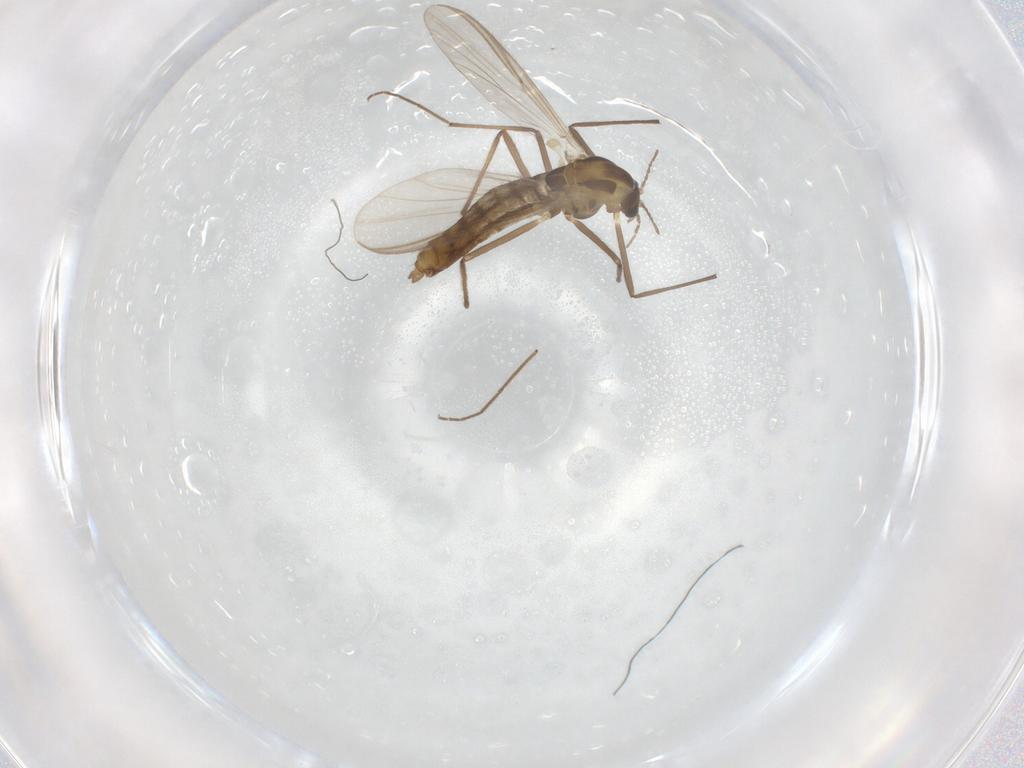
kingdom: Animalia
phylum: Arthropoda
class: Insecta
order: Diptera
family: Chironomidae
